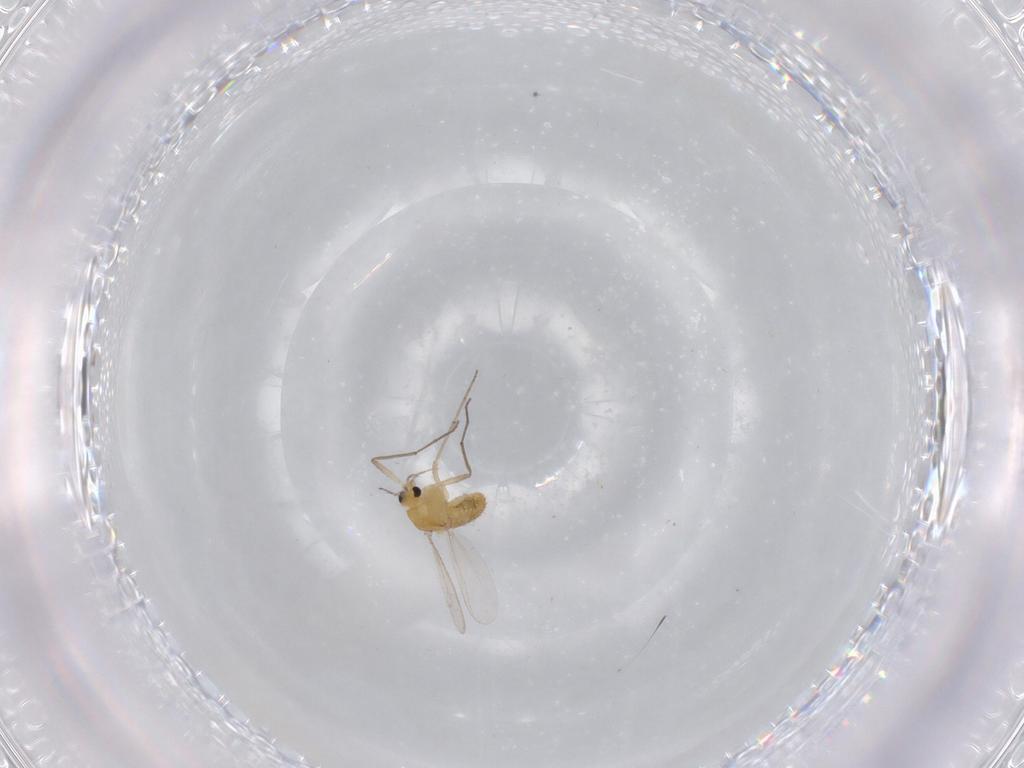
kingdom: Animalia
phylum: Arthropoda
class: Insecta
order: Diptera
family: Chironomidae
